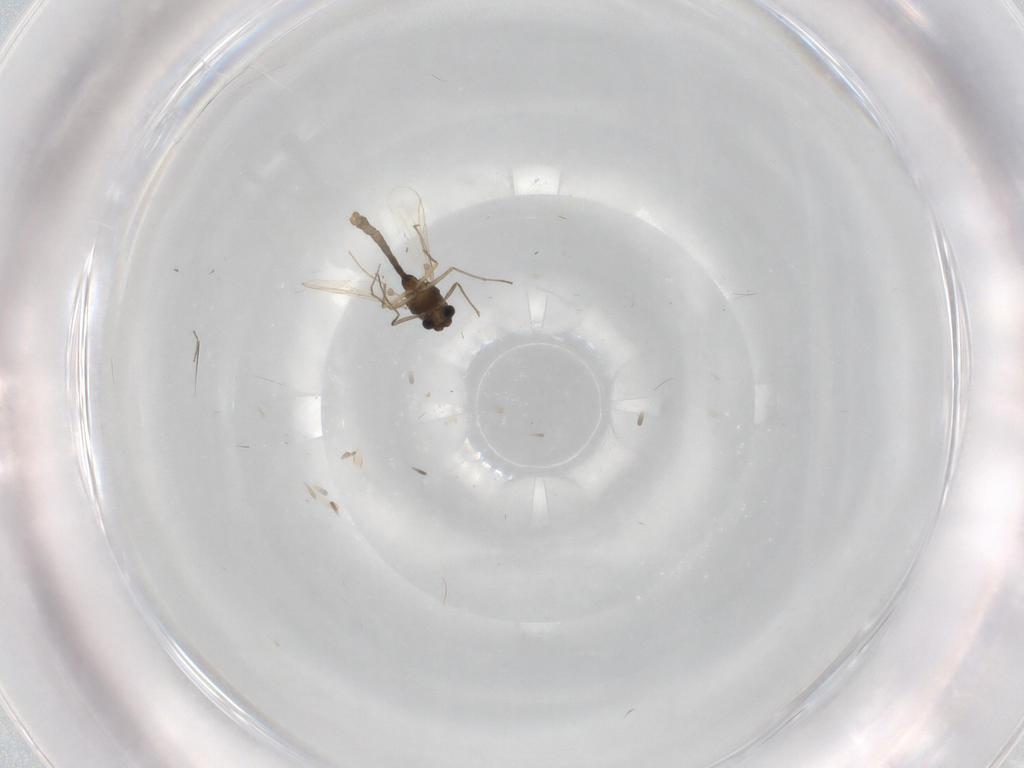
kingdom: Animalia
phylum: Arthropoda
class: Insecta
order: Diptera
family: Chironomidae
